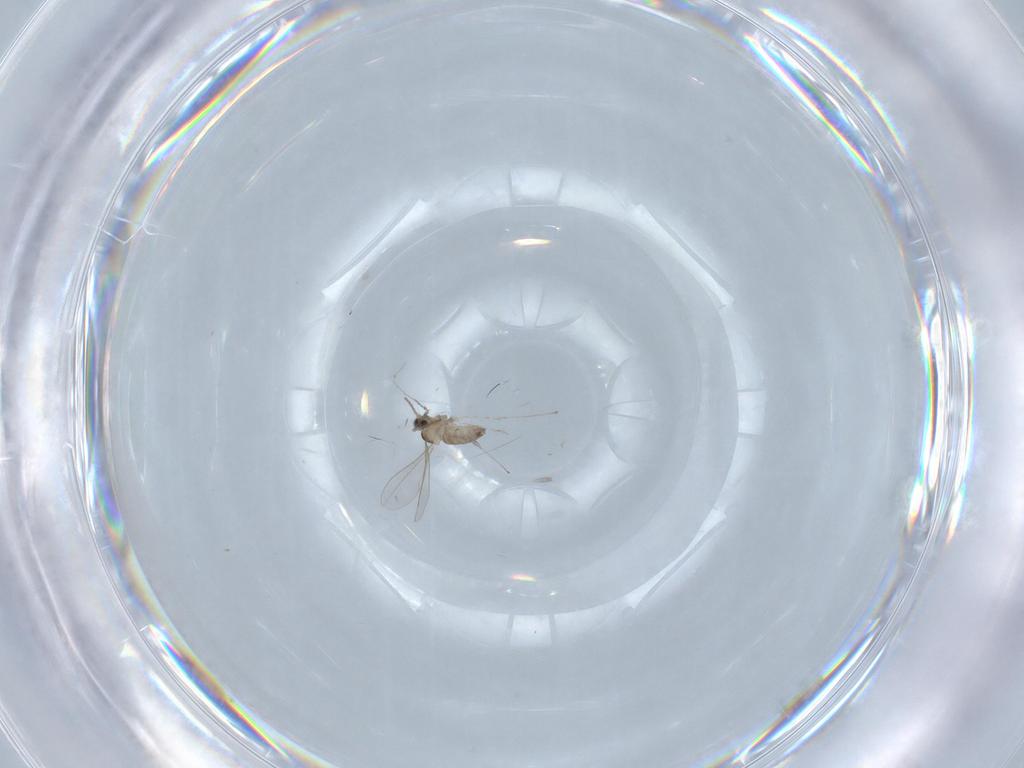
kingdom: Animalia
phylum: Arthropoda
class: Insecta
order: Diptera
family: Cecidomyiidae
